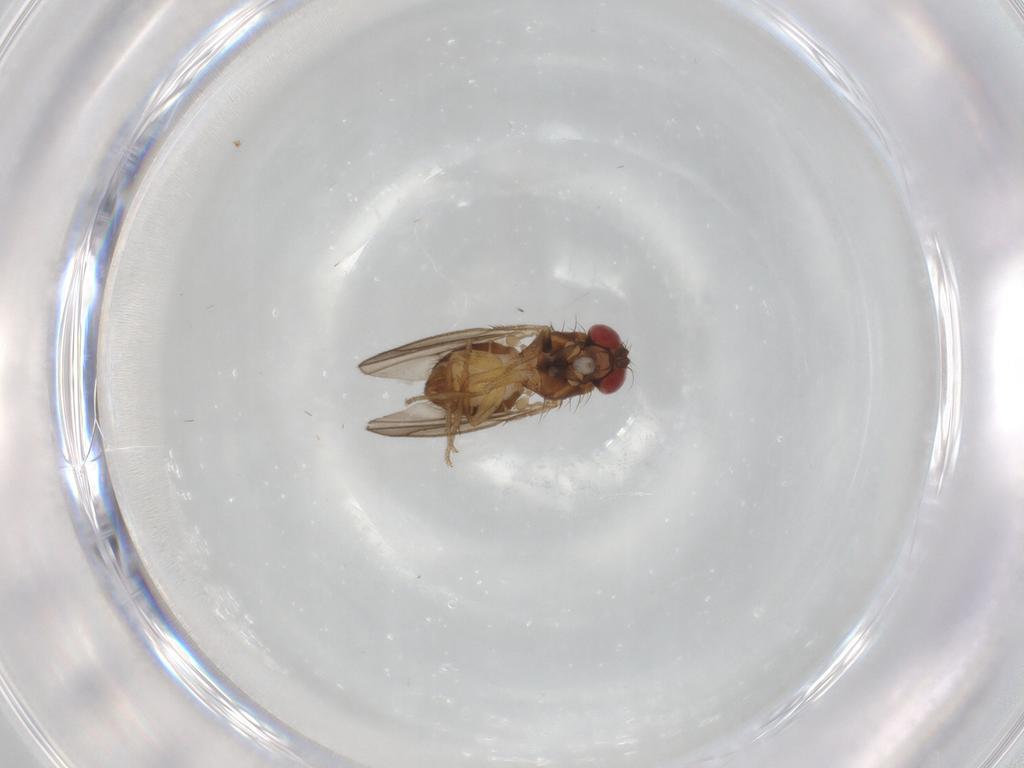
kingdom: Animalia
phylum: Arthropoda
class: Insecta
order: Diptera
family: Drosophilidae
